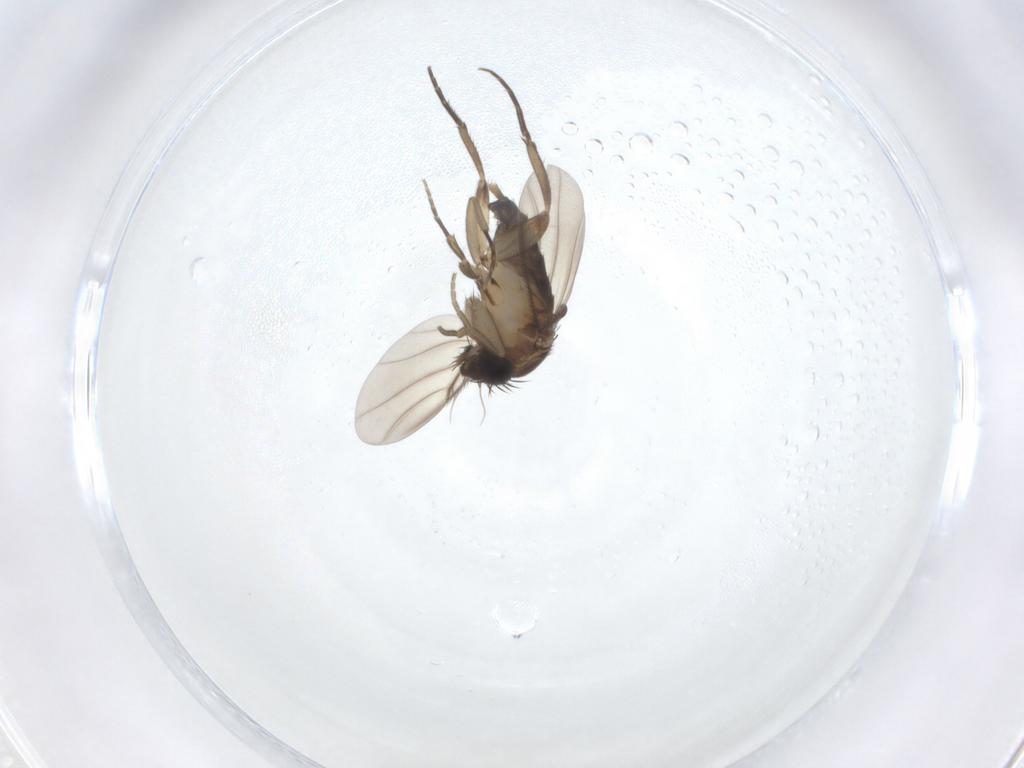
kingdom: Animalia
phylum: Arthropoda
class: Insecta
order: Diptera
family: Phoridae
